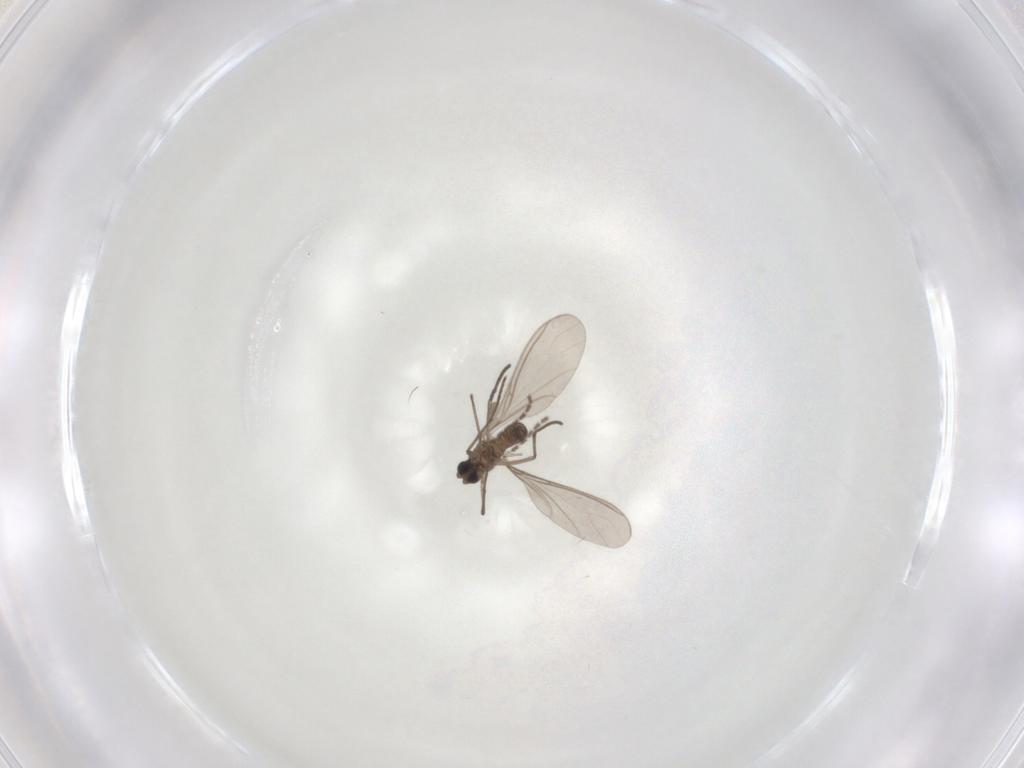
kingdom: Animalia
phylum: Arthropoda
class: Insecta
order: Diptera
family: Sciaridae
